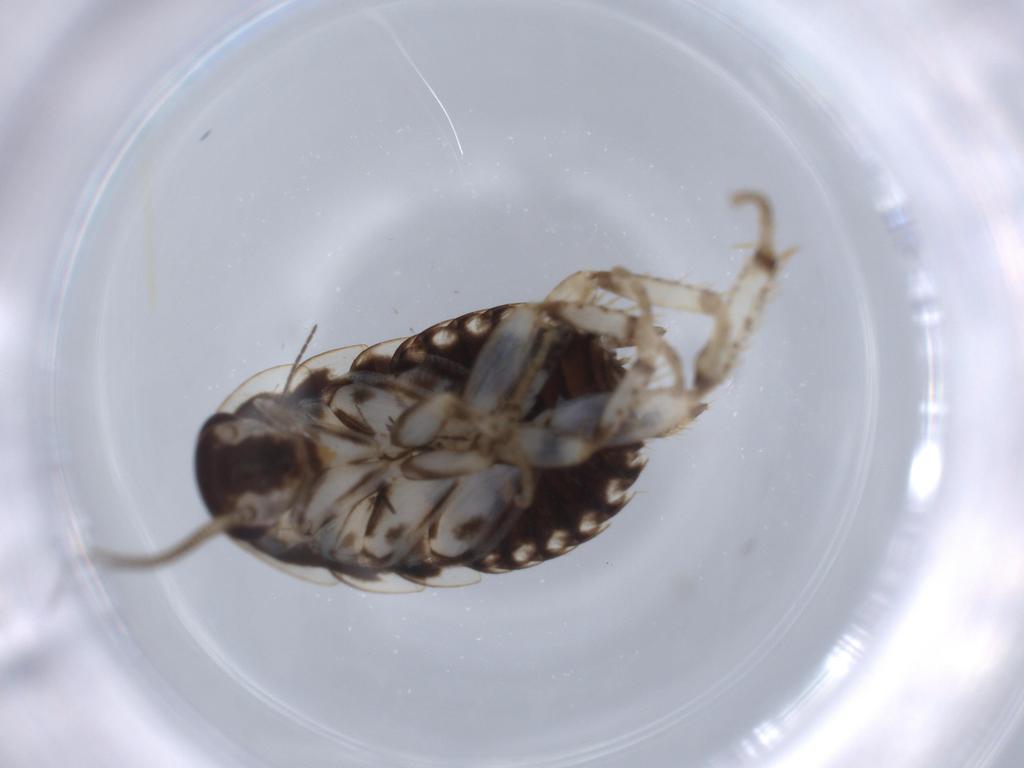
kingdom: Animalia
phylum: Arthropoda
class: Insecta
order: Blattodea
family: Ectobiidae
